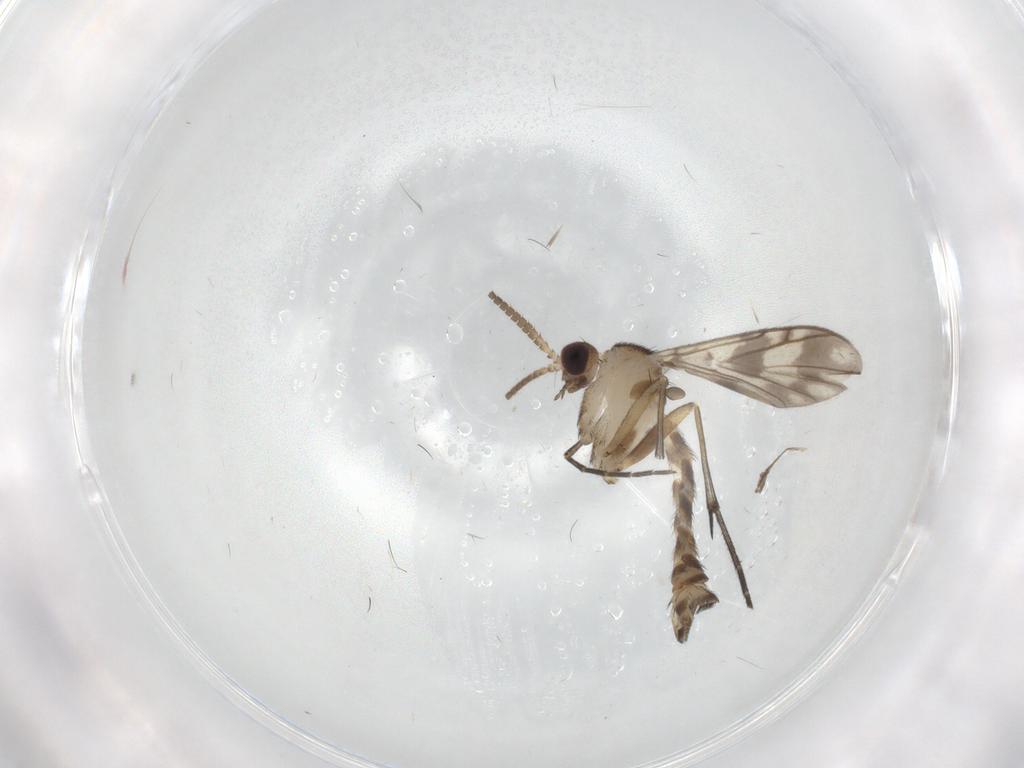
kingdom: Animalia
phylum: Arthropoda
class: Insecta
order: Diptera
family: Keroplatidae
